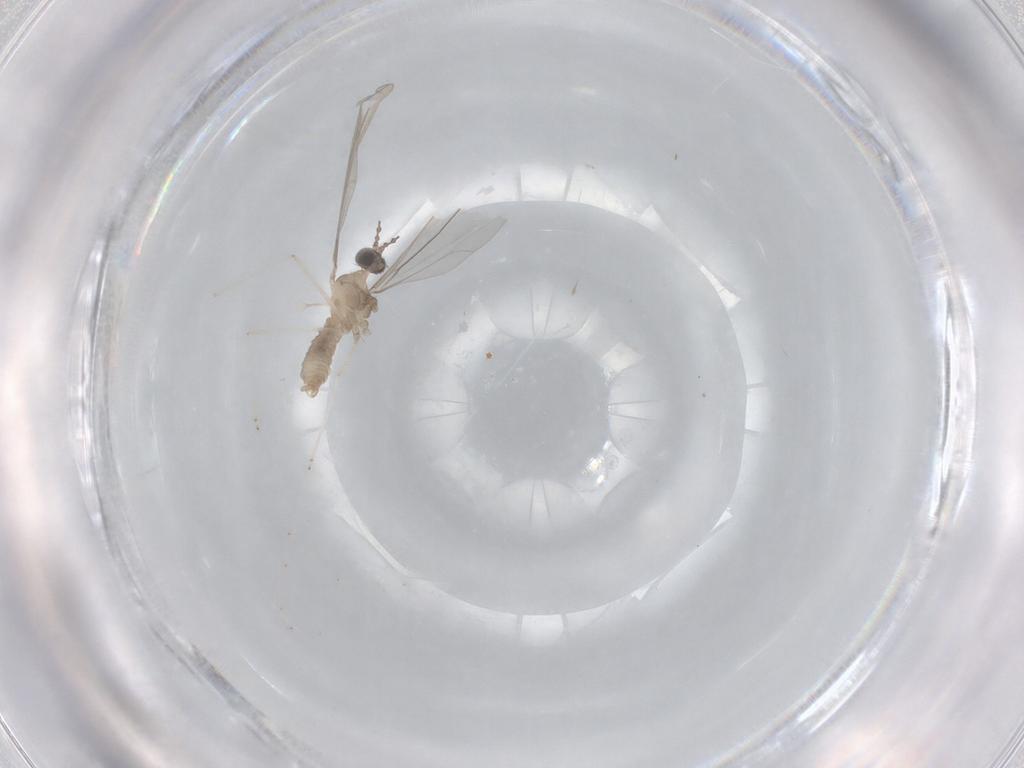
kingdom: Animalia
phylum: Arthropoda
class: Insecta
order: Diptera
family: Cecidomyiidae
